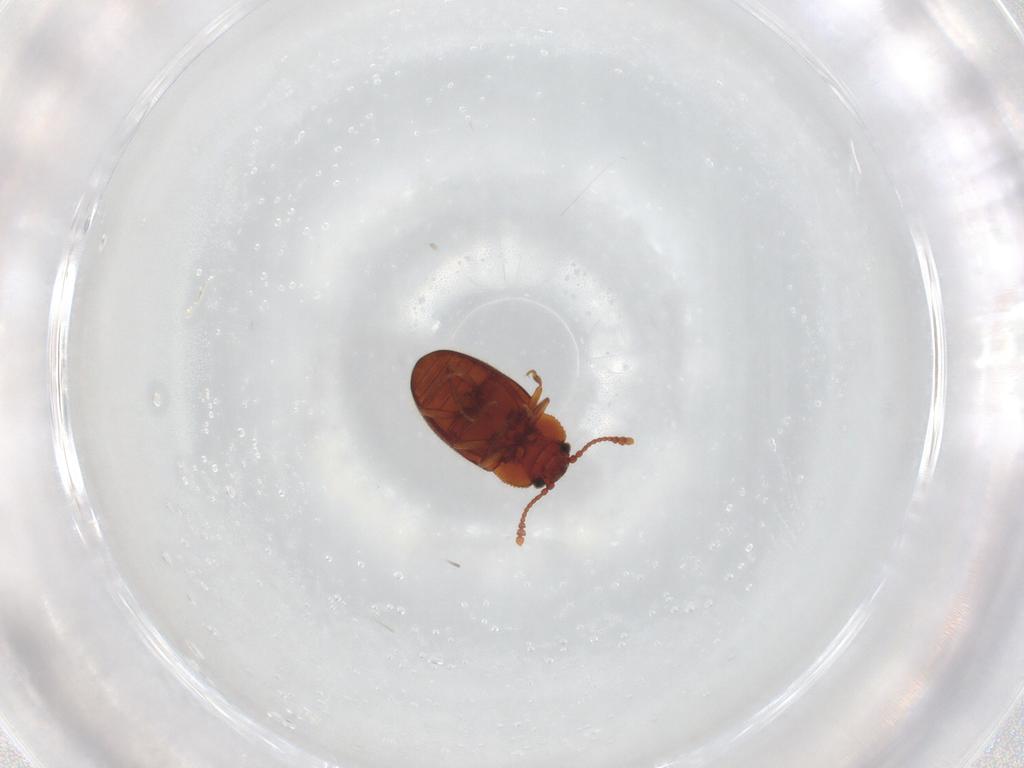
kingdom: Animalia
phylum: Arthropoda
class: Insecta
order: Coleoptera
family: Cryptophagidae
